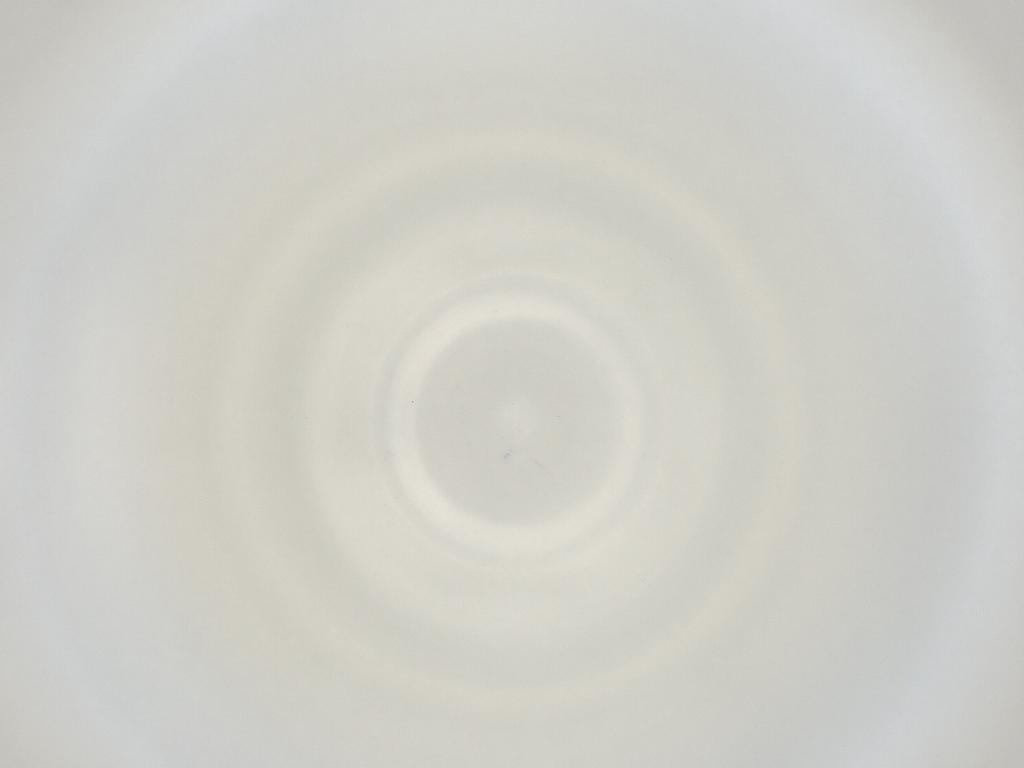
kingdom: Animalia
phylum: Arthropoda
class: Insecta
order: Diptera
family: Cecidomyiidae
